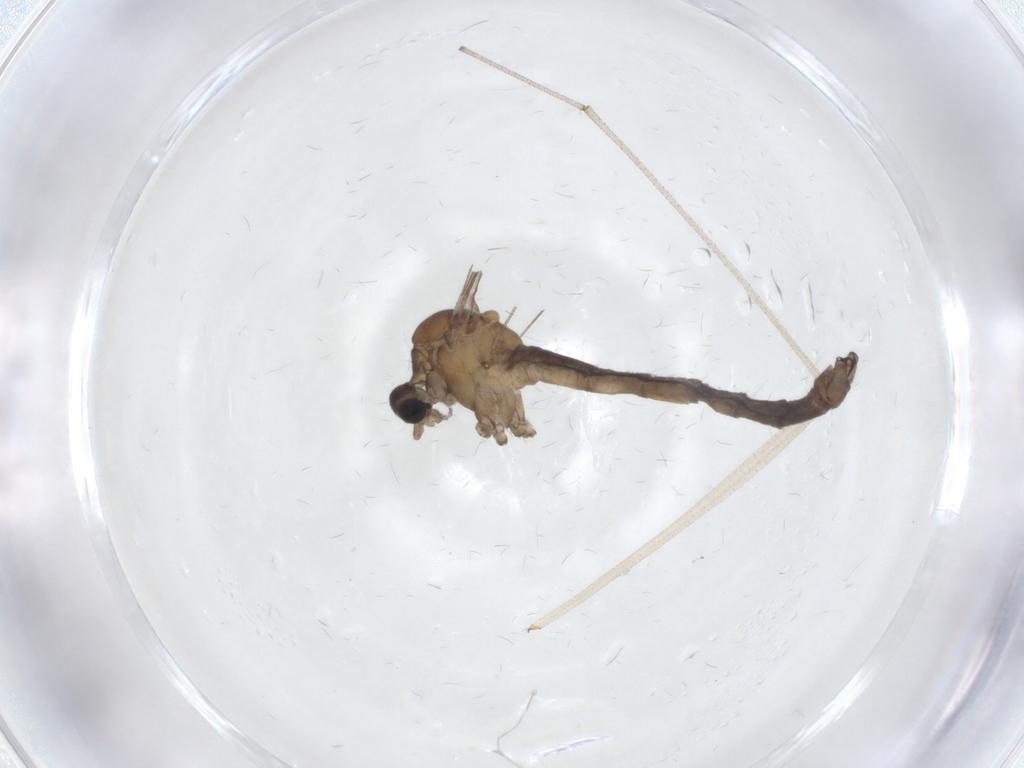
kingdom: Animalia
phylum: Arthropoda
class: Insecta
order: Diptera
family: Limoniidae
